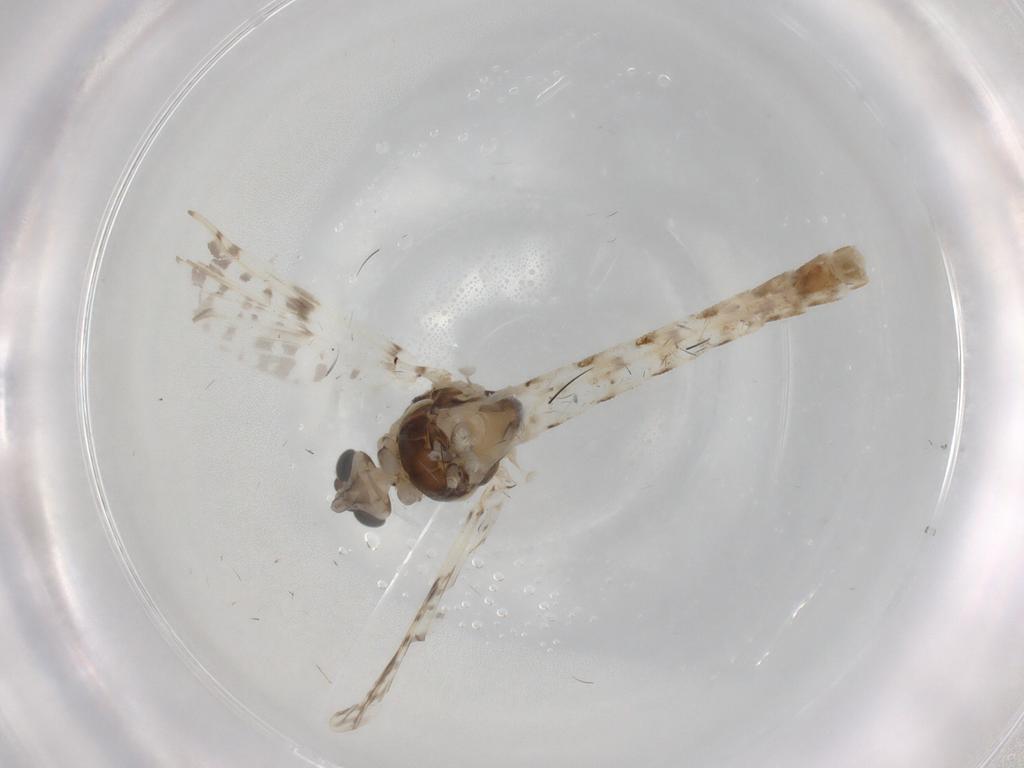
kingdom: Animalia
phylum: Arthropoda
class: Insecta
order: Diptera
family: Chironomidae
